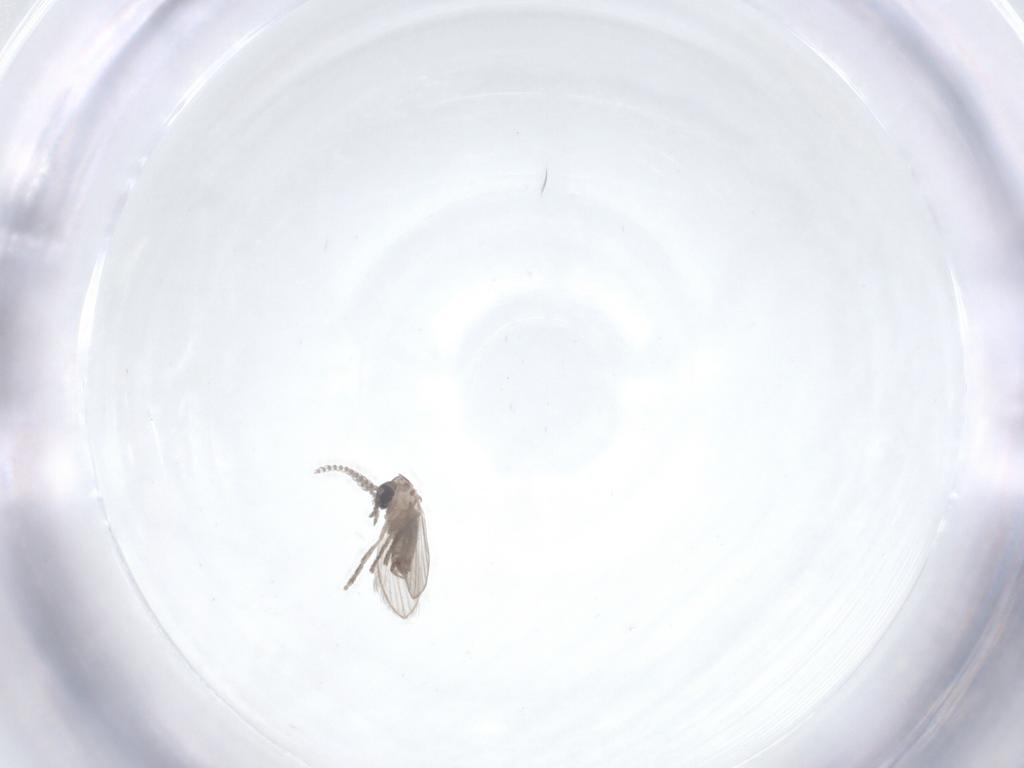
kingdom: Animalia
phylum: Arthropoda
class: Insecta
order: Diptera
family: Psychodidae
